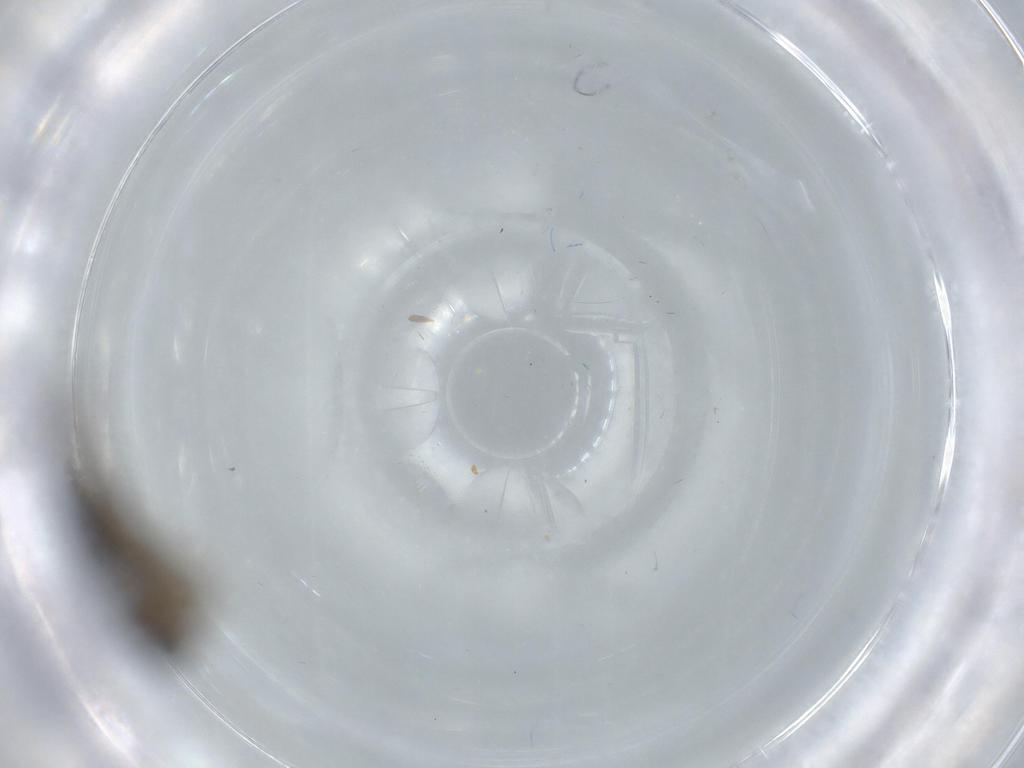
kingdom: Animalia
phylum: Arthropoda
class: Insecta
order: Diptera
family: Sciaridae
